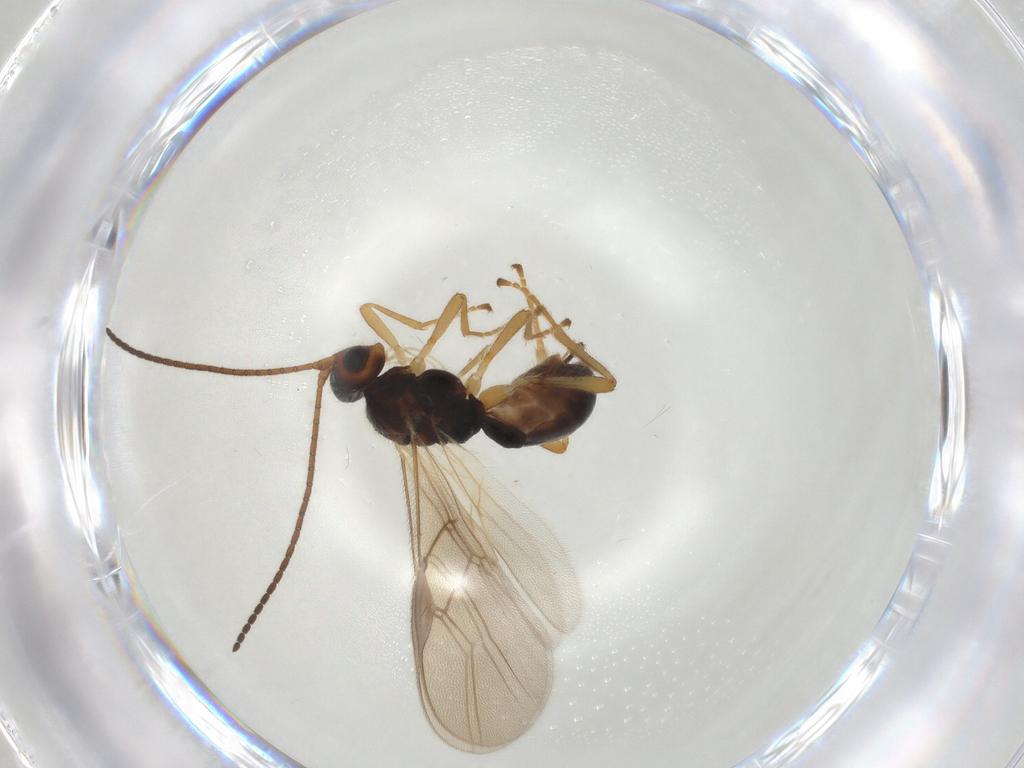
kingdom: Animalia
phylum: Arthropoda
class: Insecta
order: Hymenoptera
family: Braconidae
